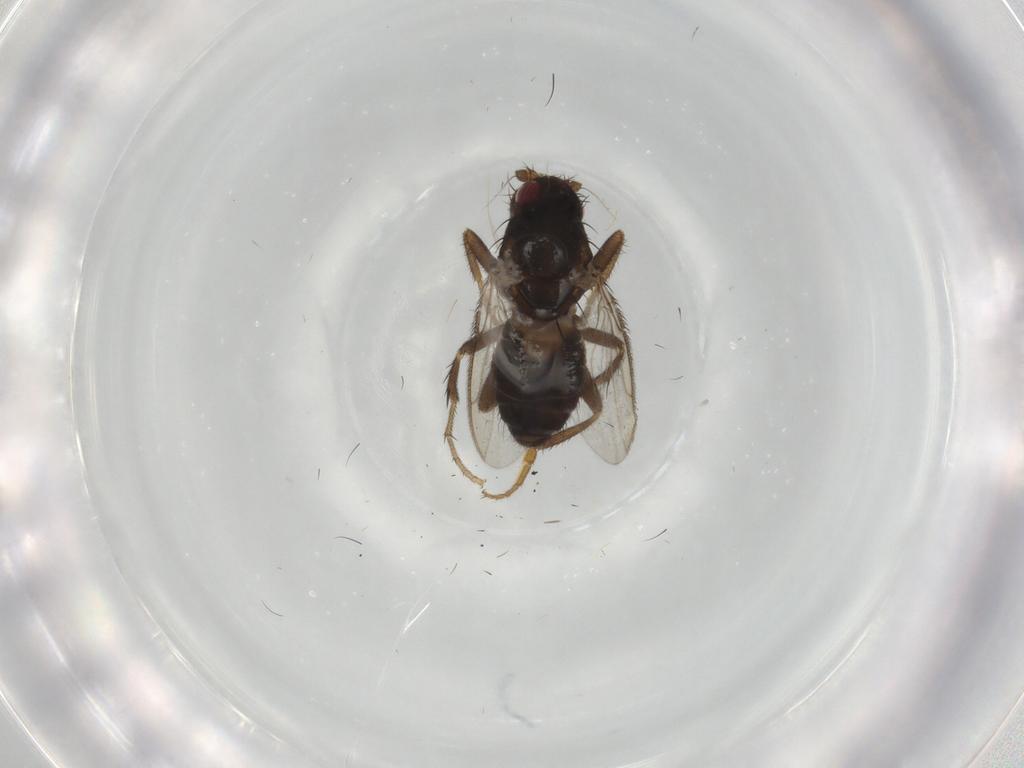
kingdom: Animalia
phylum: Arthropoda
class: Insecta
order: Diptera
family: Sphaeroceridae
